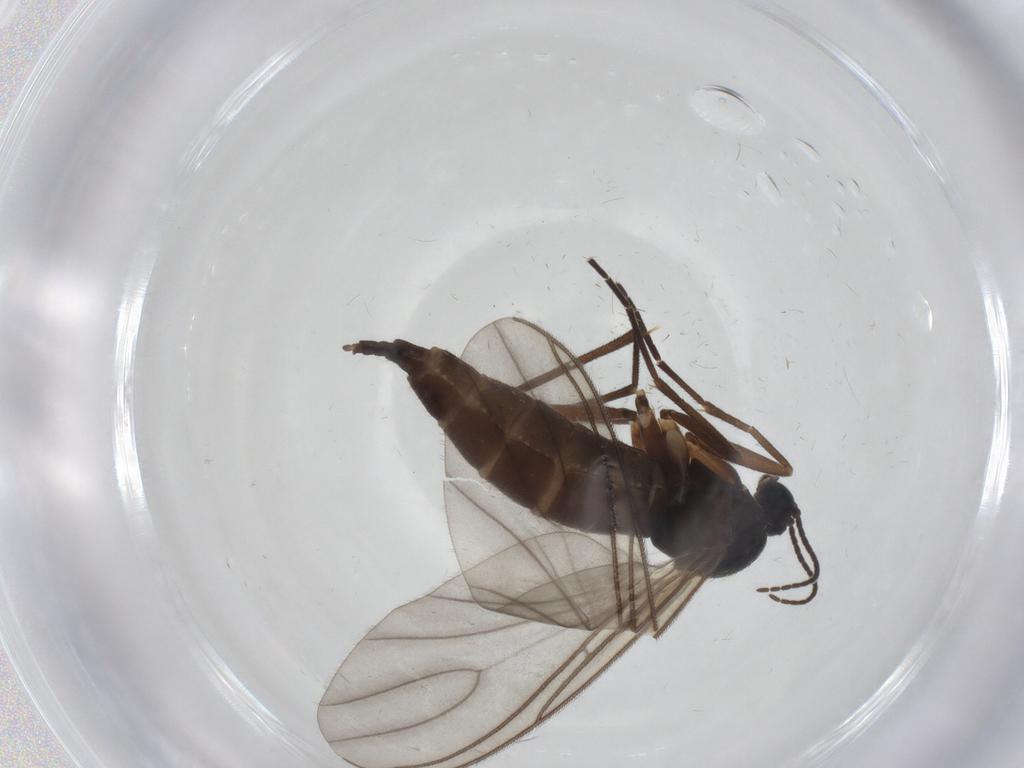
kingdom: Animalia
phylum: Arthropoda
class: Insecta
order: Diptera
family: Sciaridae
